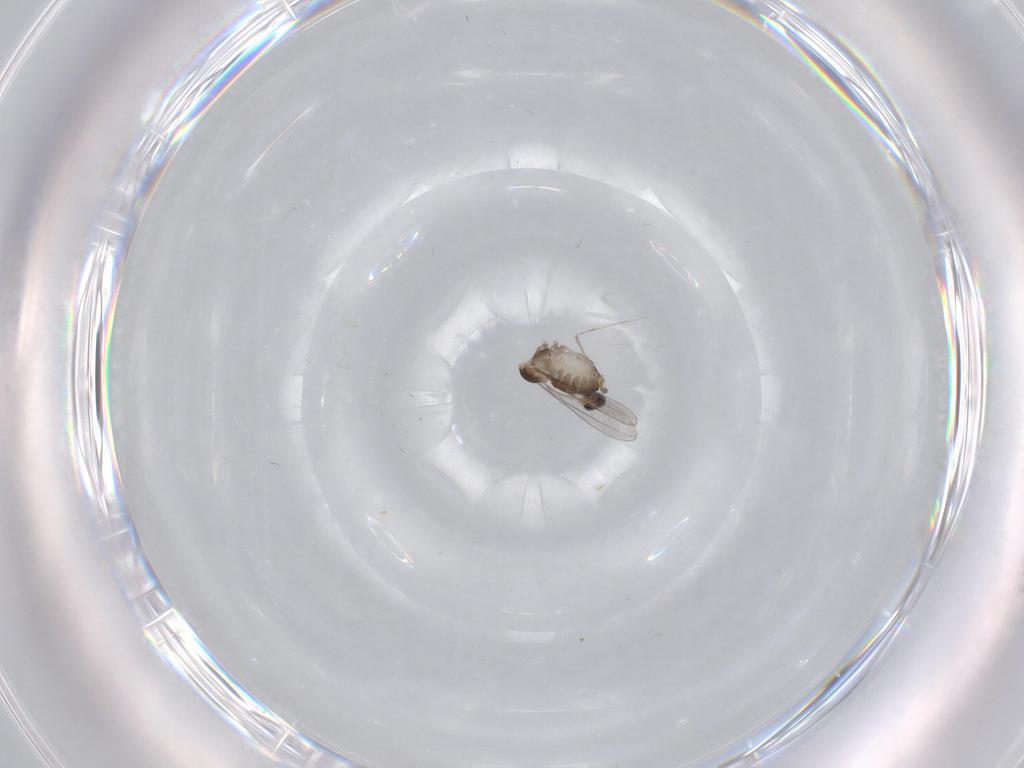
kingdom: Animalia
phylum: Arthropoda
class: Insecta
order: Diptera
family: Cecidomyiidae
